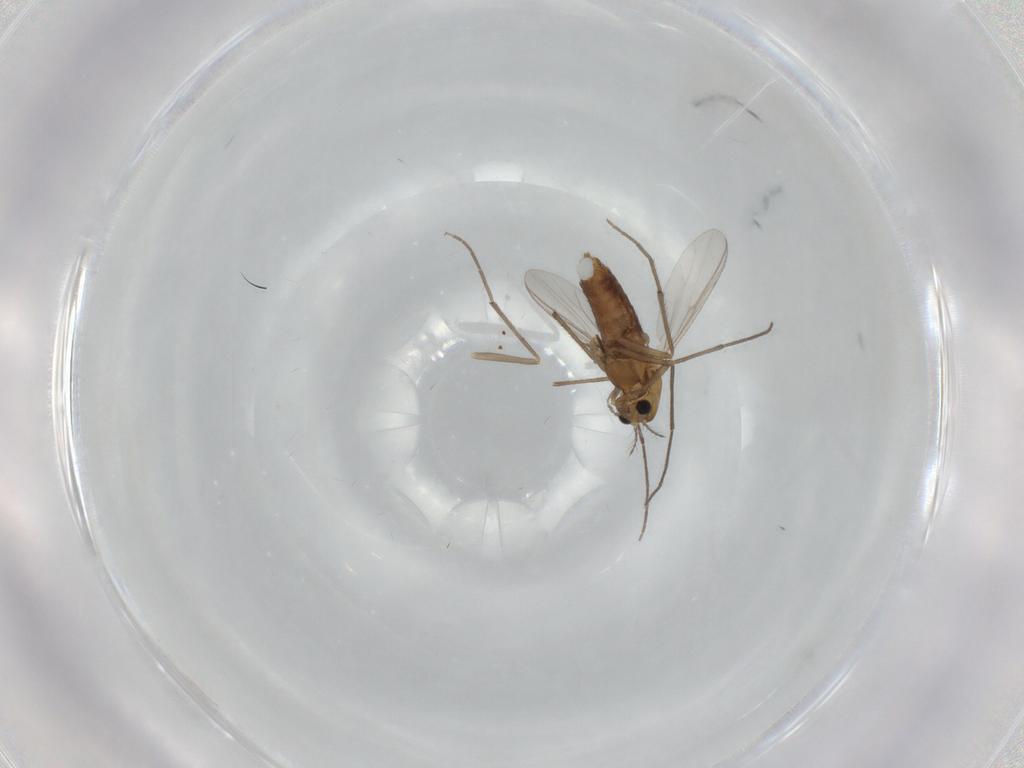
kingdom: Animalia
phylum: Arthropoda
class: Insecta
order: Diptera
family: Chironomidae
